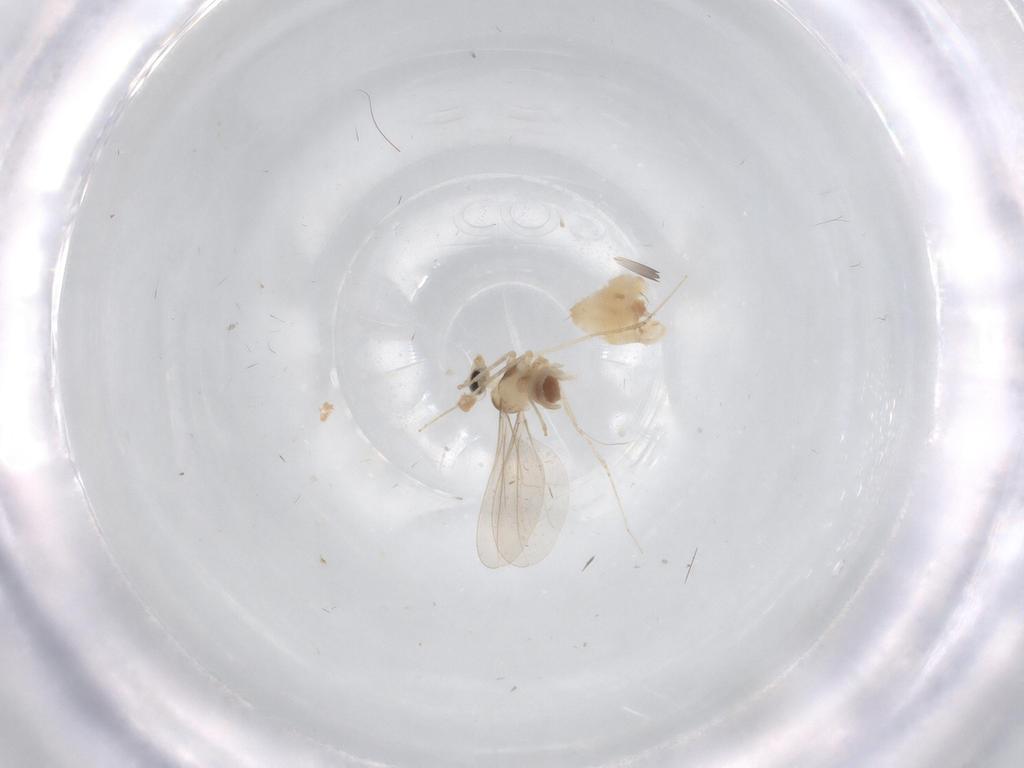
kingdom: Animalia
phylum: Arthropoda
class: Insecta
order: Diptera
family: Cecidomyiidae
